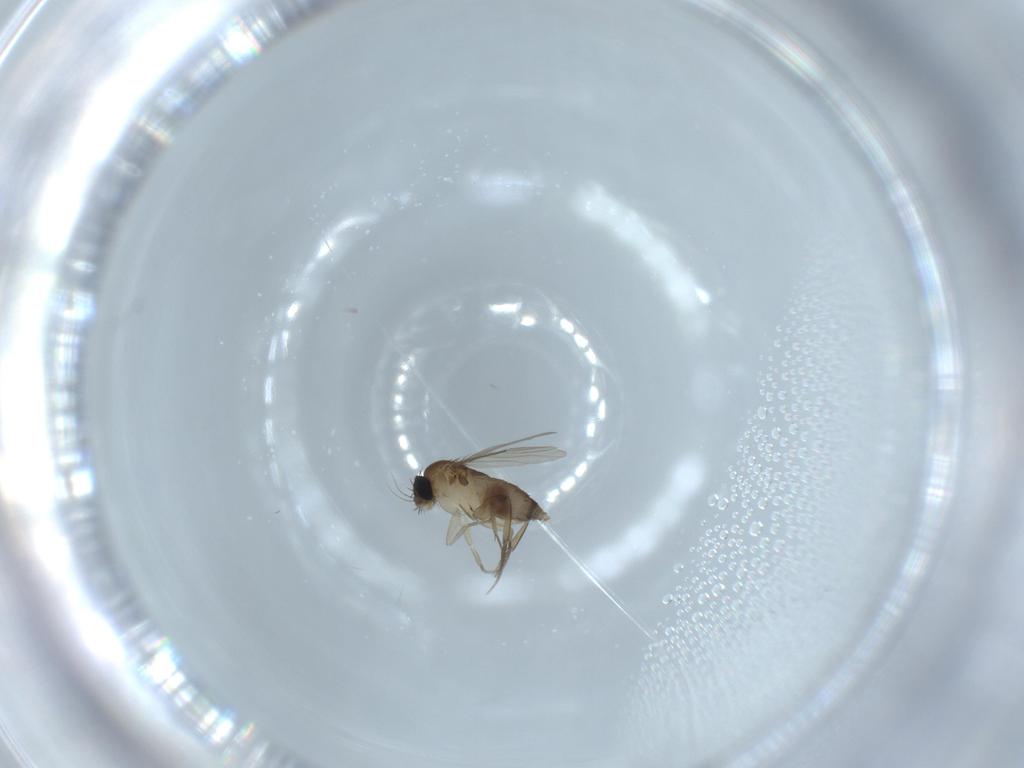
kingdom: Animalia
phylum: Arthropoda
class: Insecta
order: Diptera
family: Phoridae
